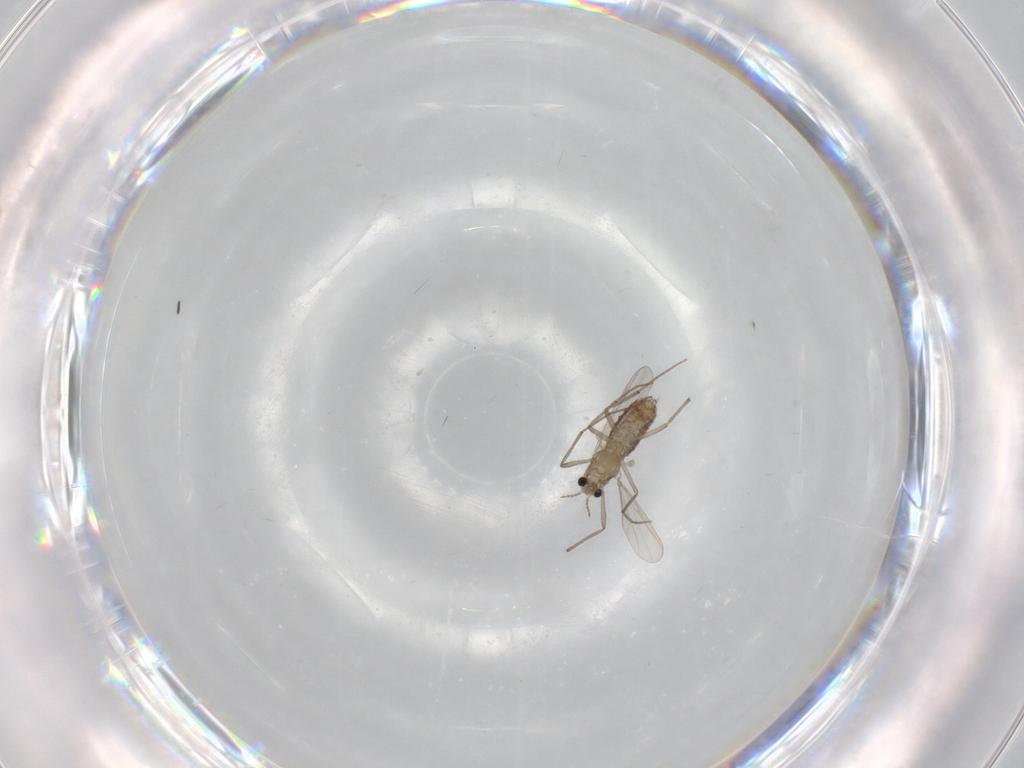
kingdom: Animalia
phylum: Arthropoda
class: Insecta
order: Diptera
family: Chironomidae
